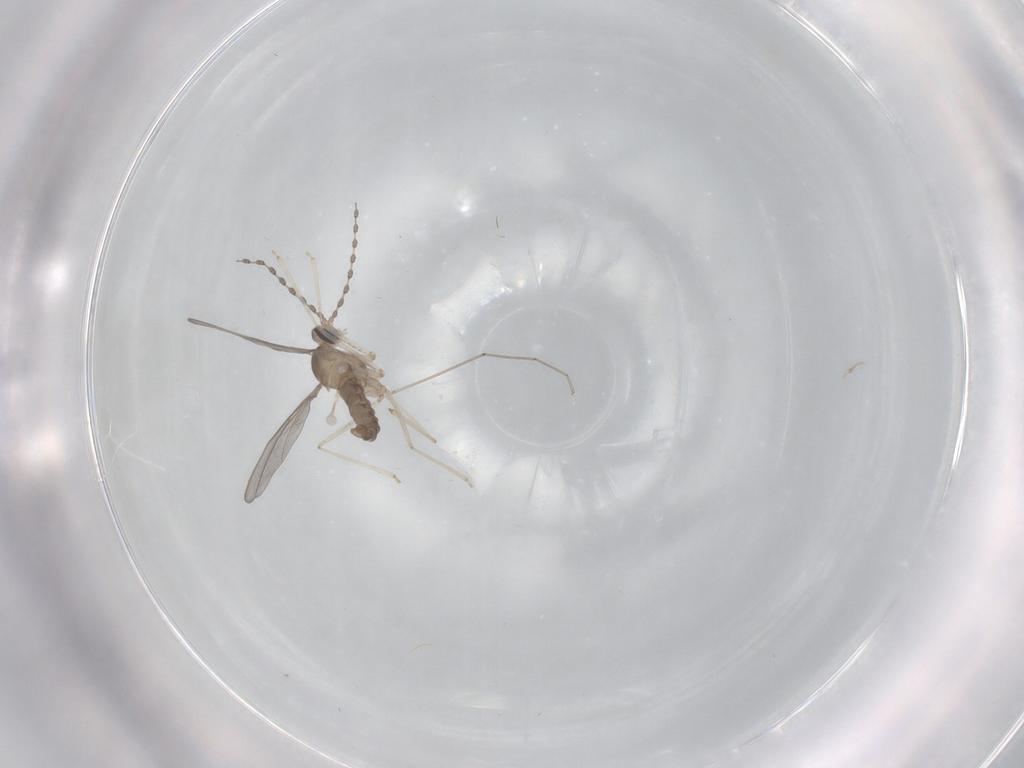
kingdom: Animalia
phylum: Arthropoda
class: Insecta
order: Diptera
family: Cecidomyiidae
